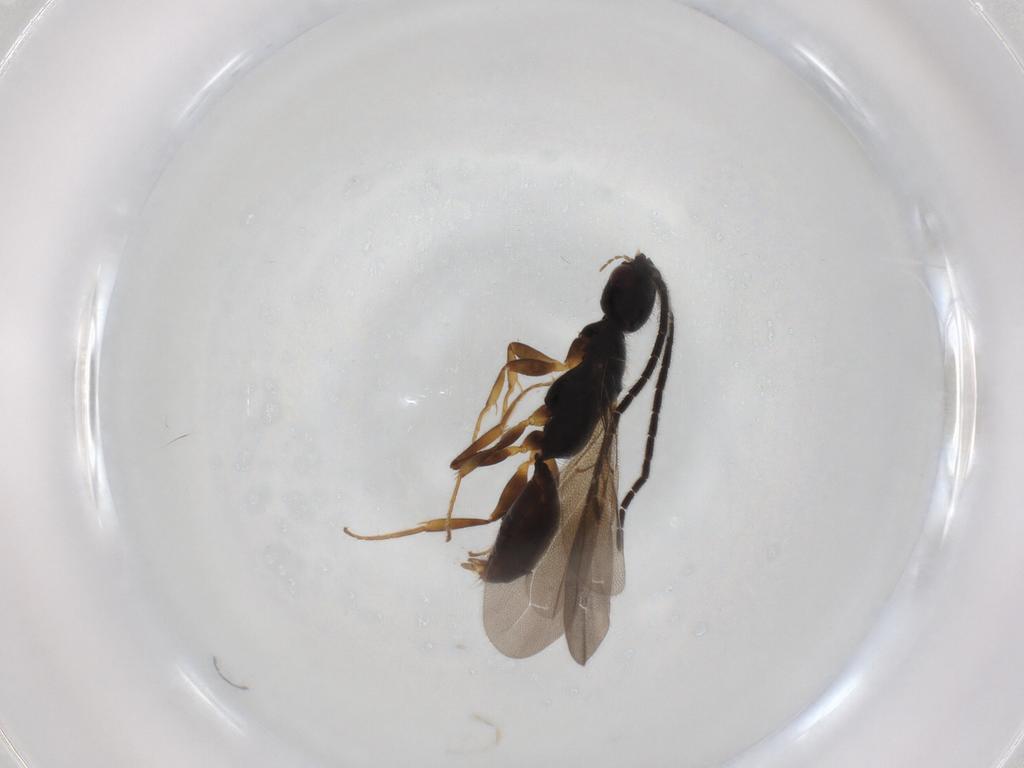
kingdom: Animalia
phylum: Arthropoda
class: Insecta
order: Hymenoptera
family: Bethylidae
